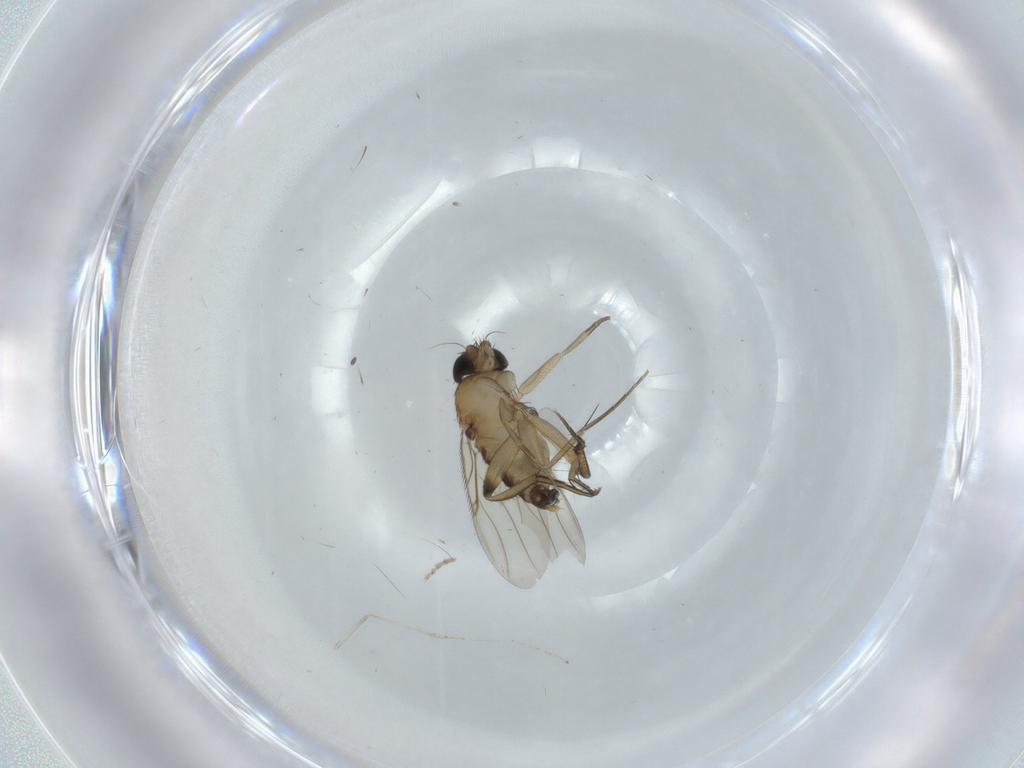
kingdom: Animalia
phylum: Arthropoda
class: Insecta
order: Diptera
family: Phoridae
